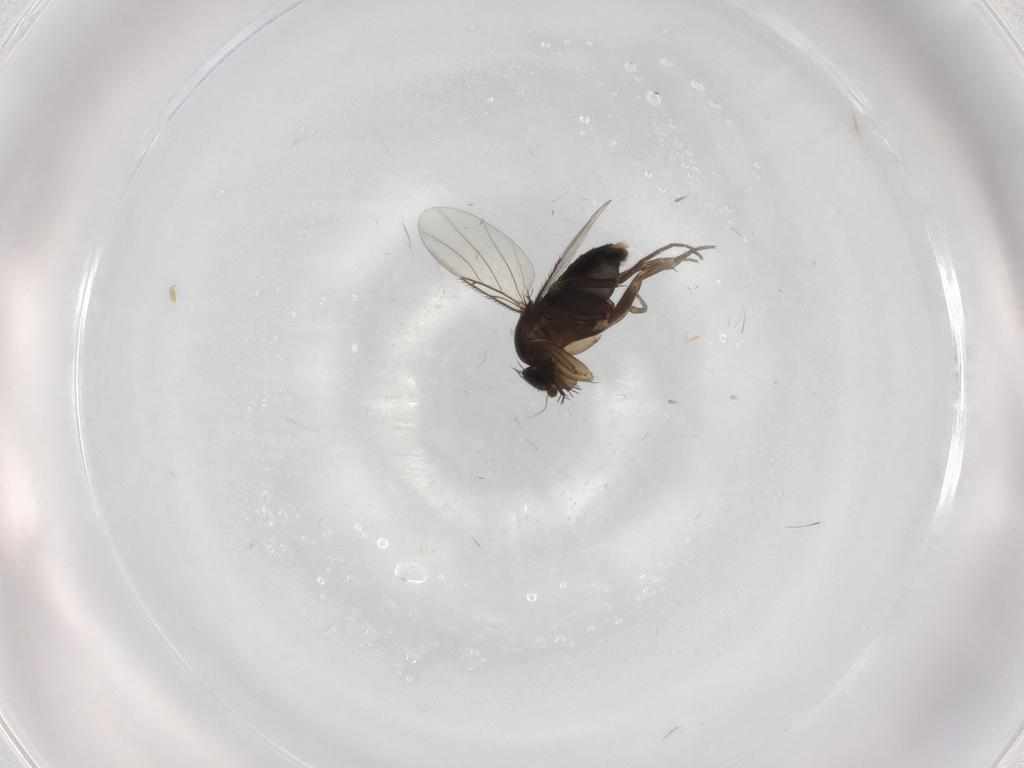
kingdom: Animalia
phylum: Arthropoda
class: Insecta
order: Diptera
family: Phoridae
